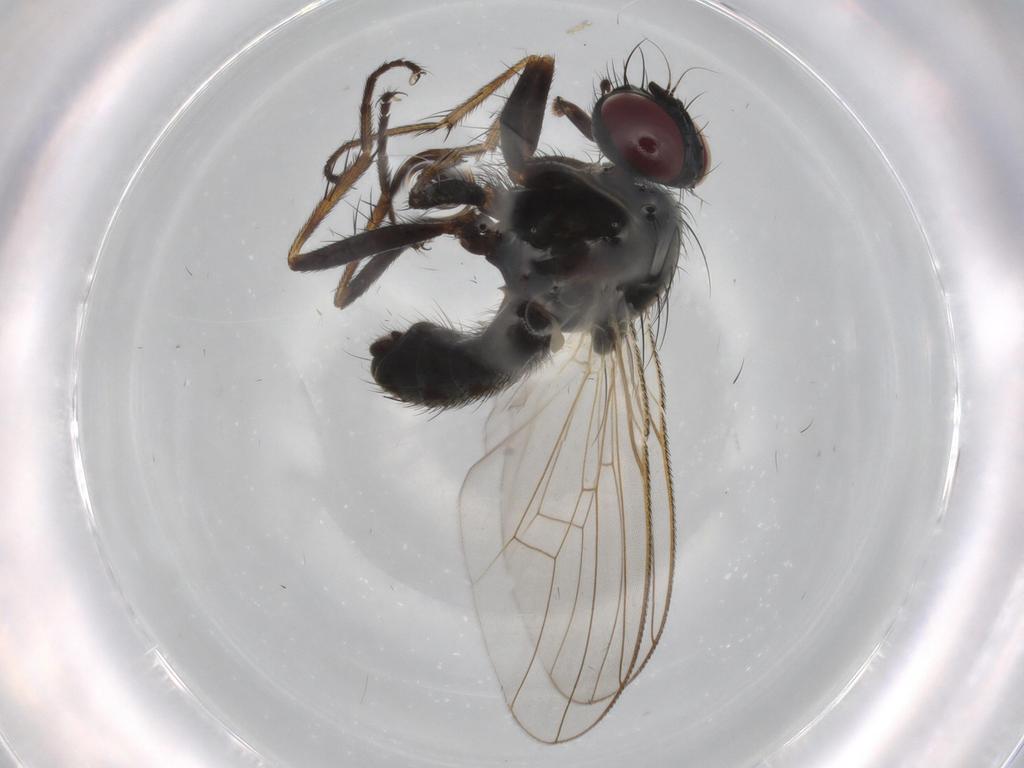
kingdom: Animalia
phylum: Arthropoda
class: Insecta
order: Diptera
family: Muscidae
